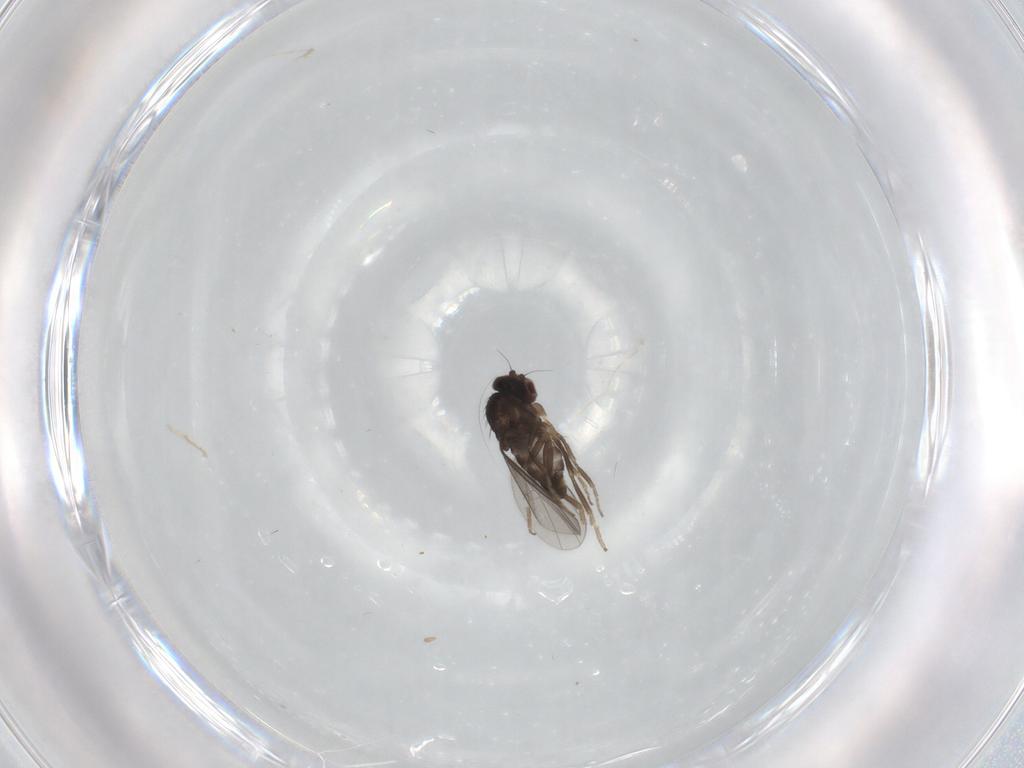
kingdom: Animalia
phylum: Arthropoda
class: Insecta
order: Diptera
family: Dolichopodidae
